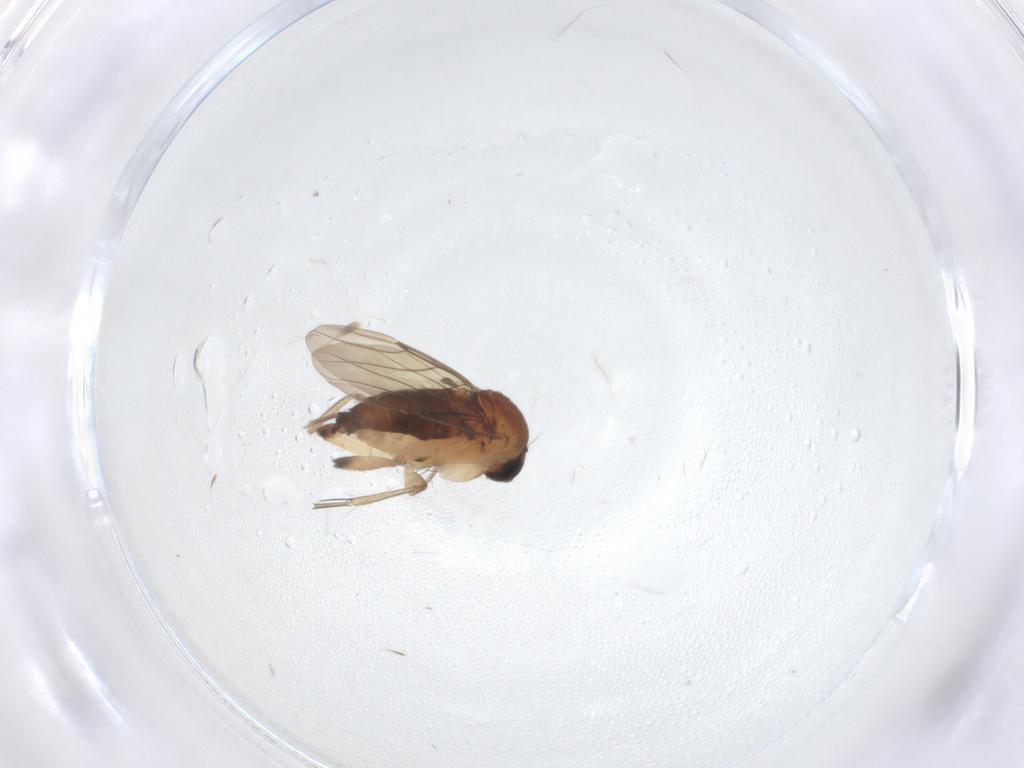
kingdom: Animalia
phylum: Arthropoda
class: Insecta
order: Diptera
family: Phoridae
